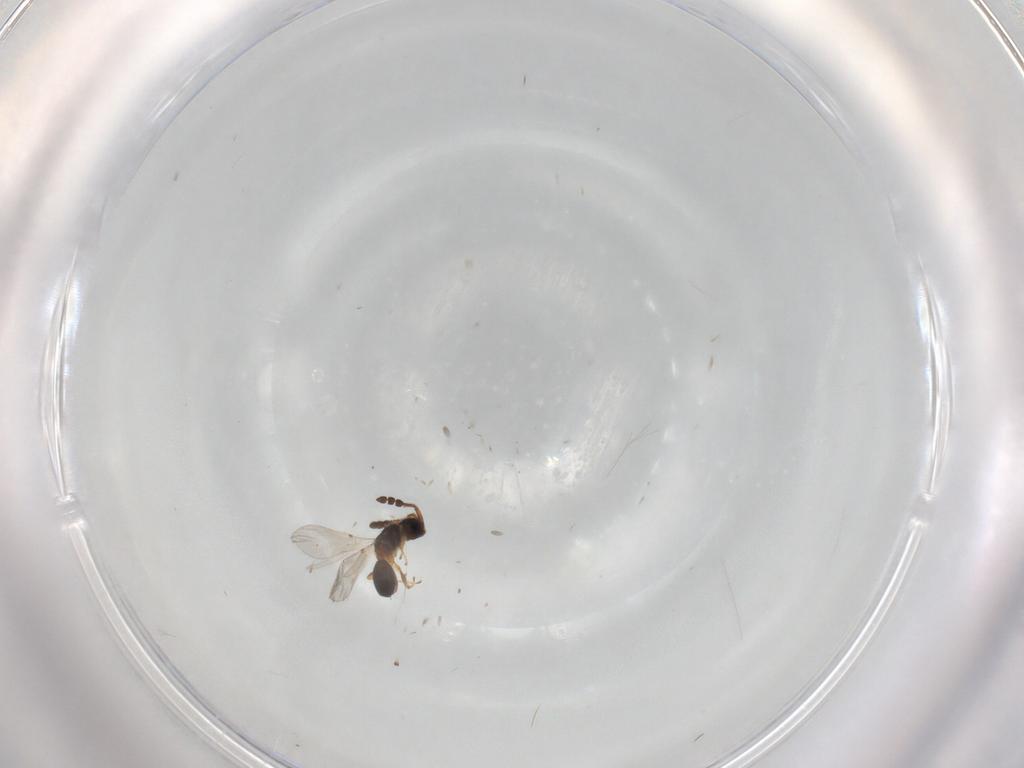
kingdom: Animalia
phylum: Arthropoda
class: Insecta
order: Hymenoptera
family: Diapriidae
